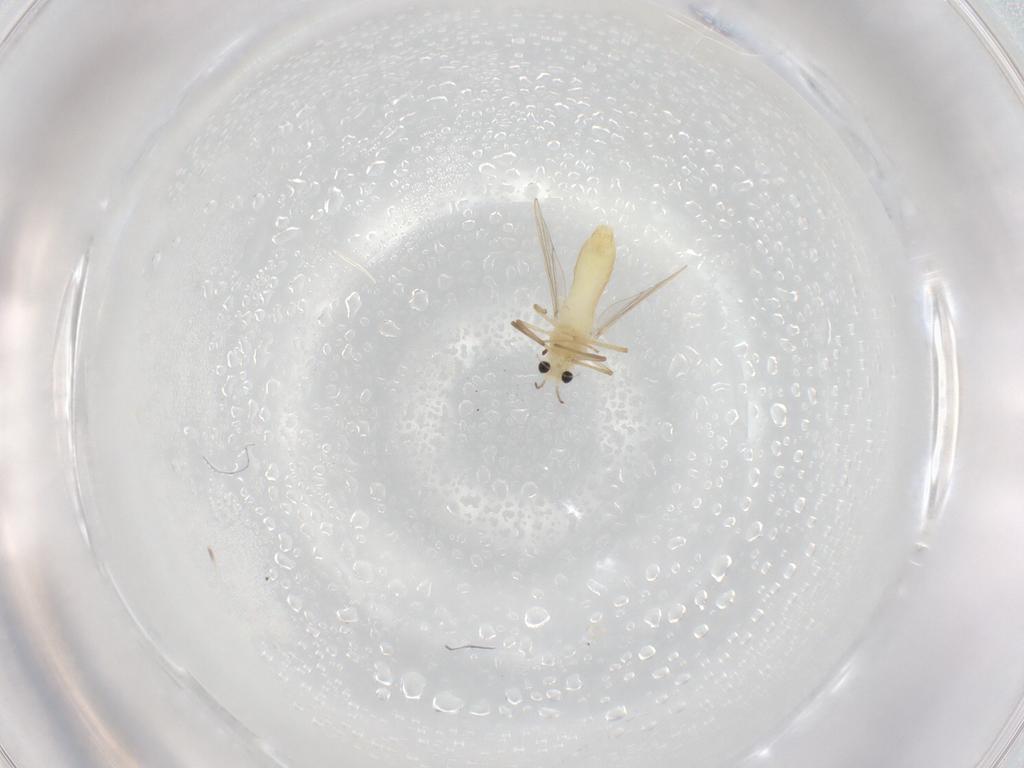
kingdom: Animalia
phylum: Arthropoda
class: Insecta
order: Diptera
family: Chironomidae
